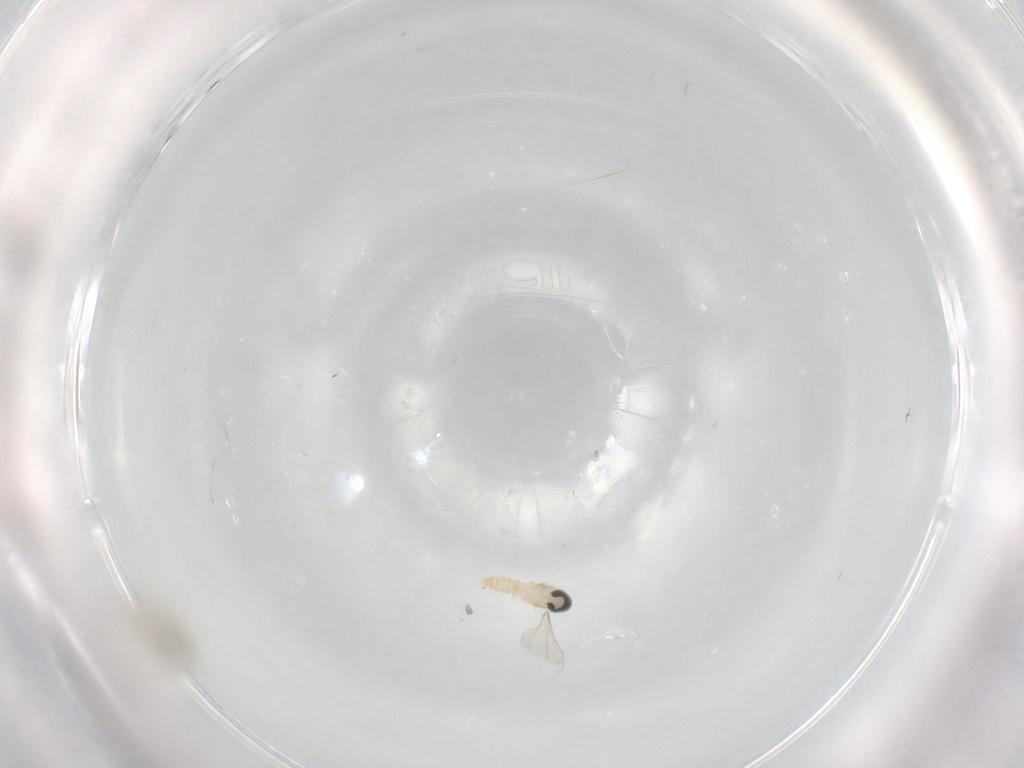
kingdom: Animalia
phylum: Arthropoda
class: Insecta
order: Diptera
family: Cecidomyiidae
